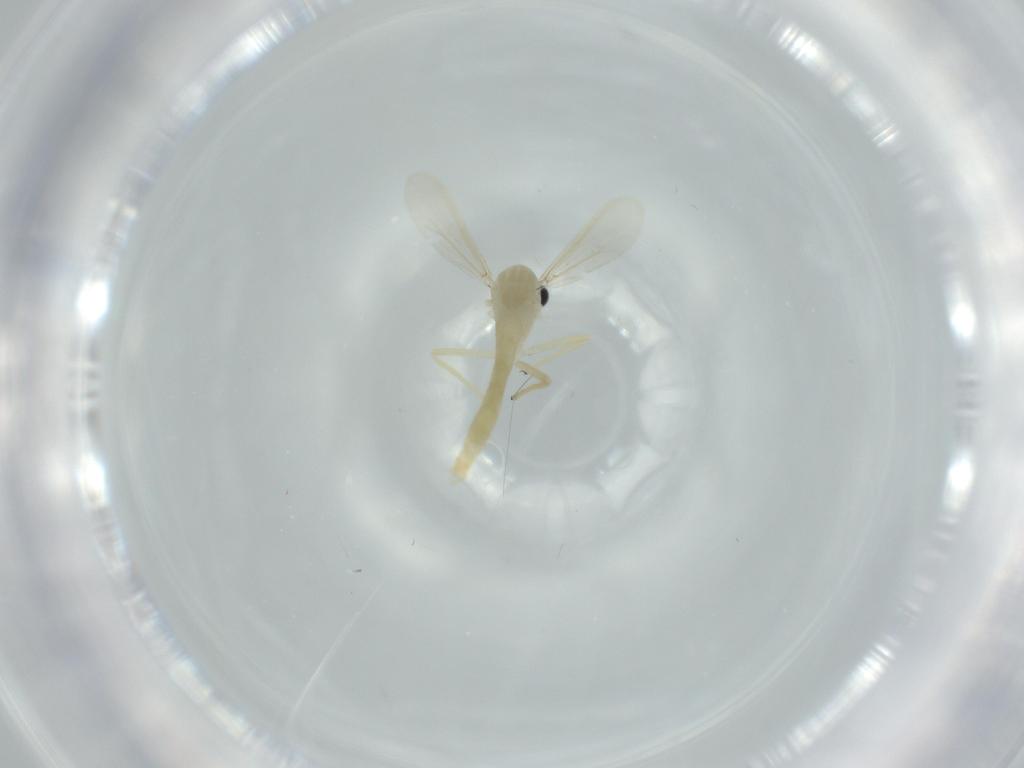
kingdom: Animalia
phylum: Arthropoda
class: Insecta
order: Diptera
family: Chironomidae
